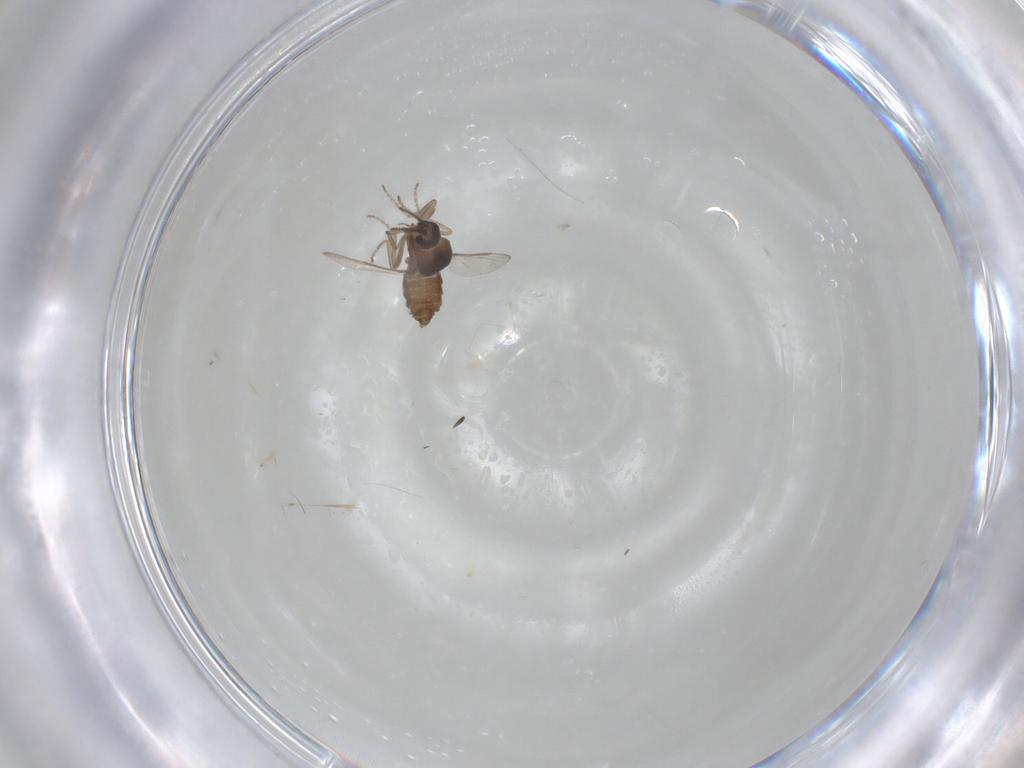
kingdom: Animalia
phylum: Arthropoda
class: Insecta
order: Diptera
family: Ceratopogonidae
